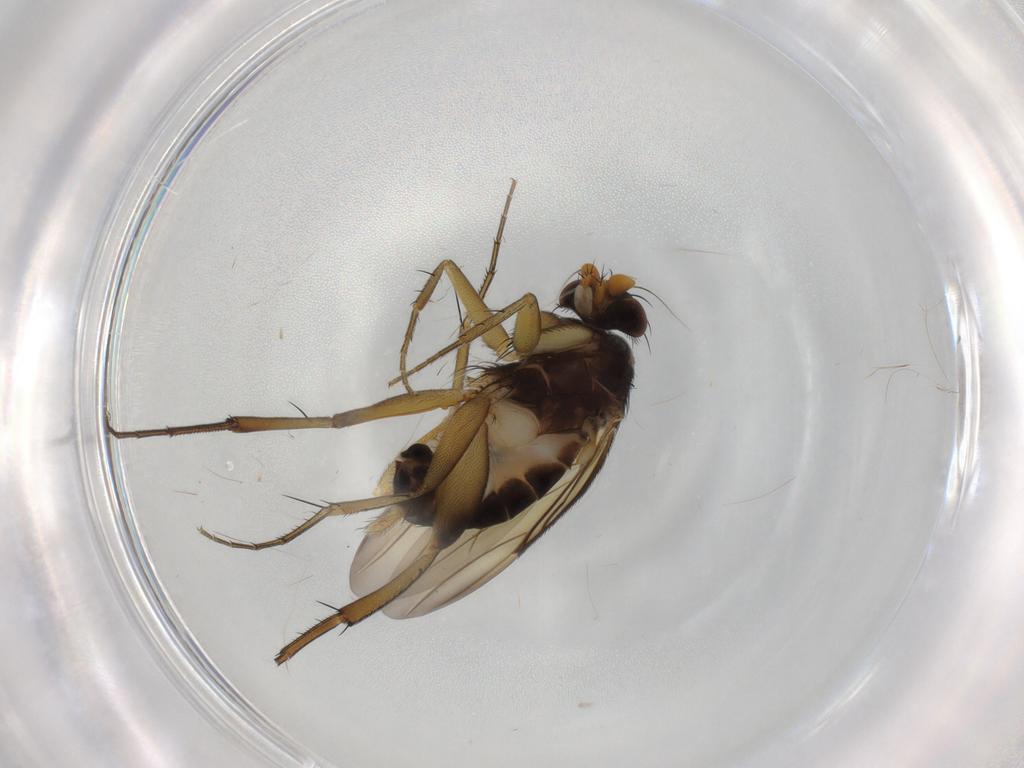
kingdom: Animalia
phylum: Arthropoda
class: Insecta
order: Diptera
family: Phoridae
